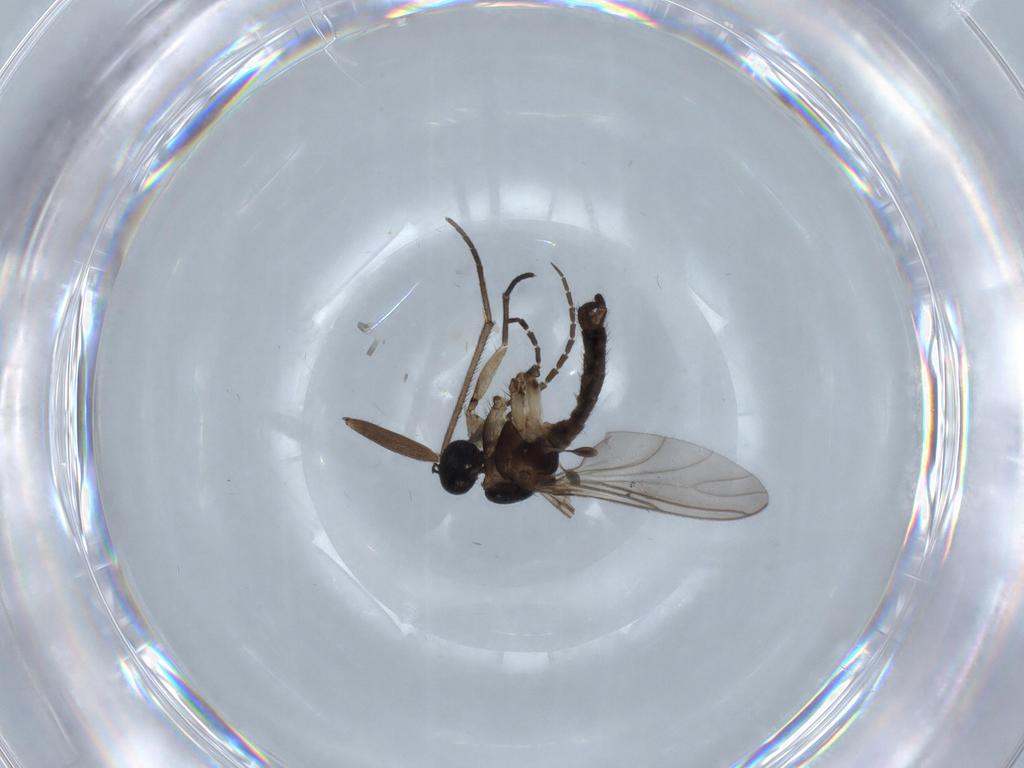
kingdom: Animalia
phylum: Arthropoda
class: Insecta
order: Diptera
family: Sciaridae
